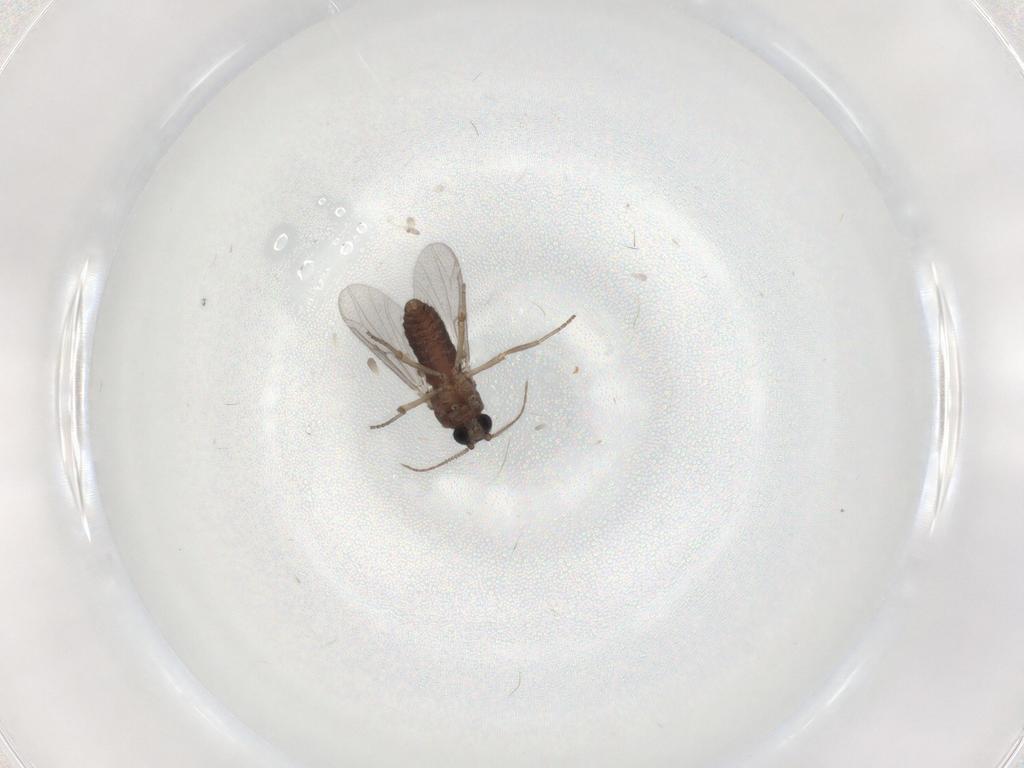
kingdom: Animalia
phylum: Arthropoda
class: Insecta
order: Diptera
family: Ceratopogonidae
